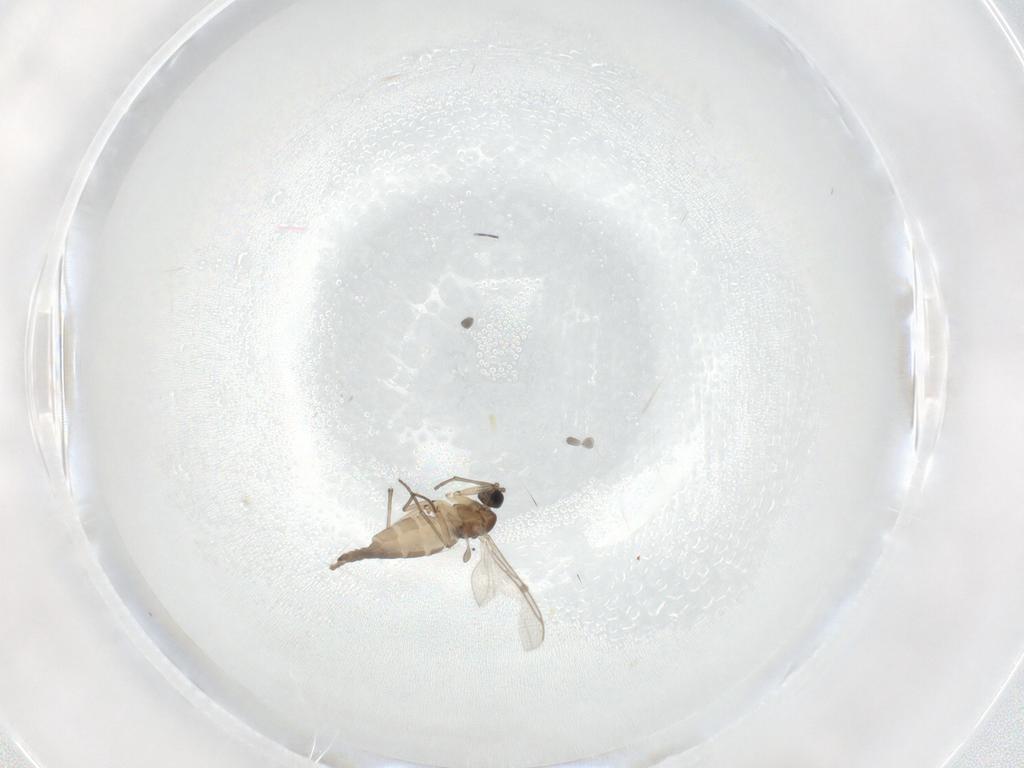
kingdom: Animalia
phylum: Arthropoda
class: Insecta
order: Diptera
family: Sciaridae
